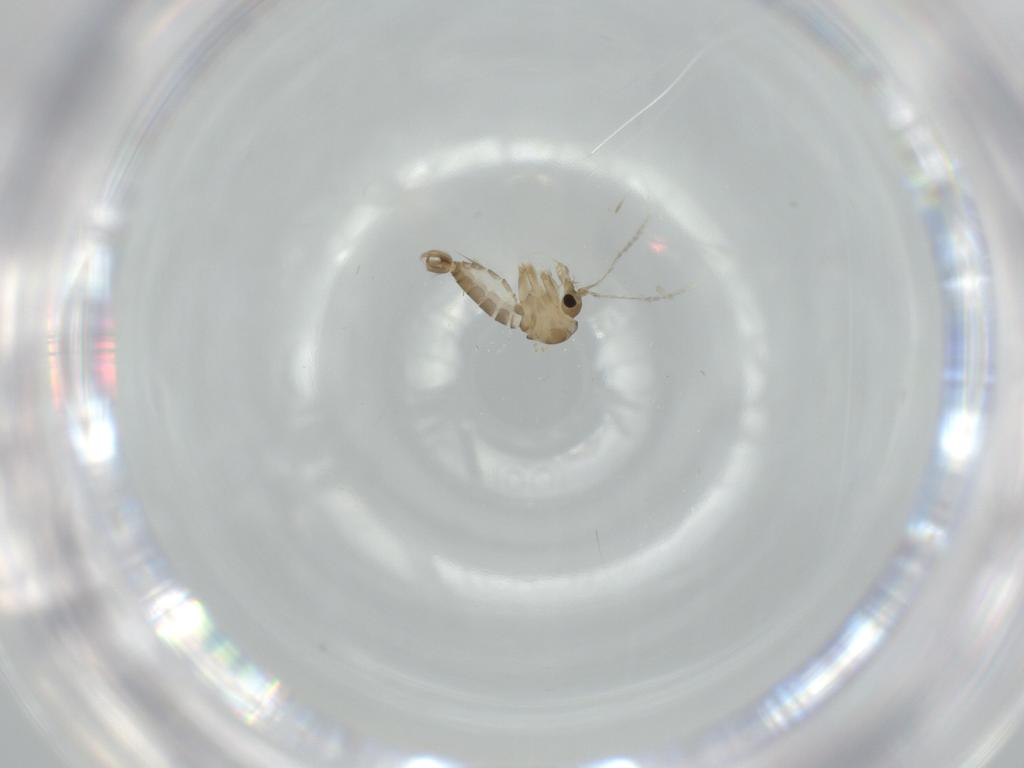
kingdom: Animalia
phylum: Arthropoda
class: Insecta
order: Diptera
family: Psychodidae
